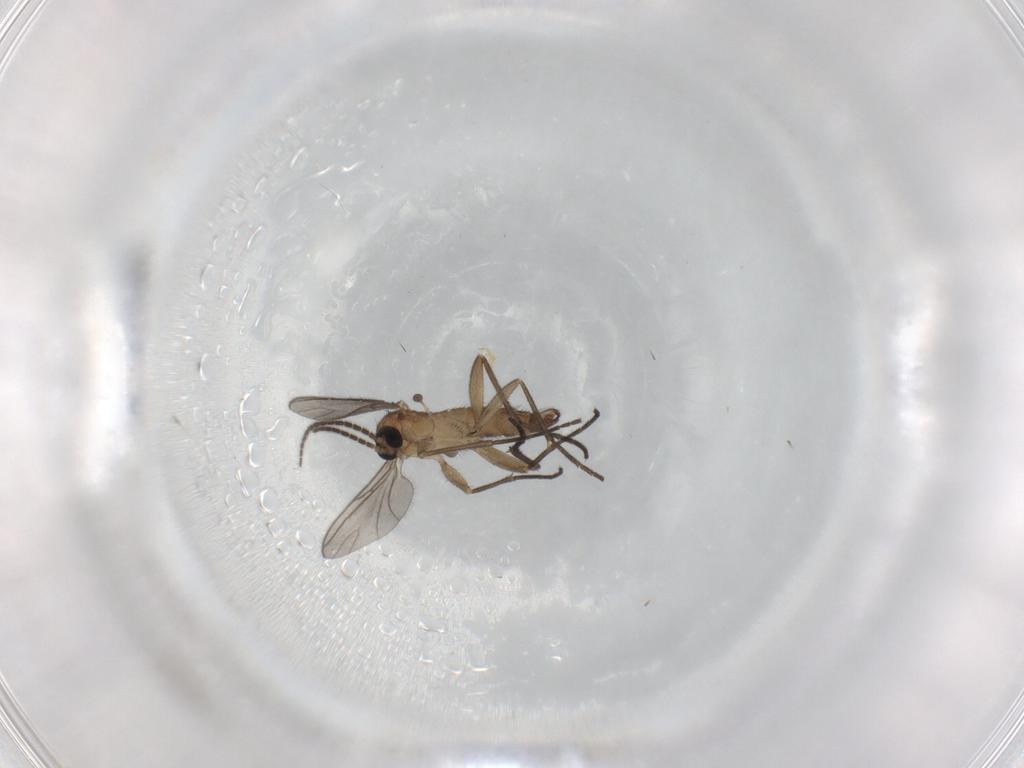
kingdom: Animalia
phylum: Arthropoda
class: Insecta
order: Diptera
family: Sciaridae
